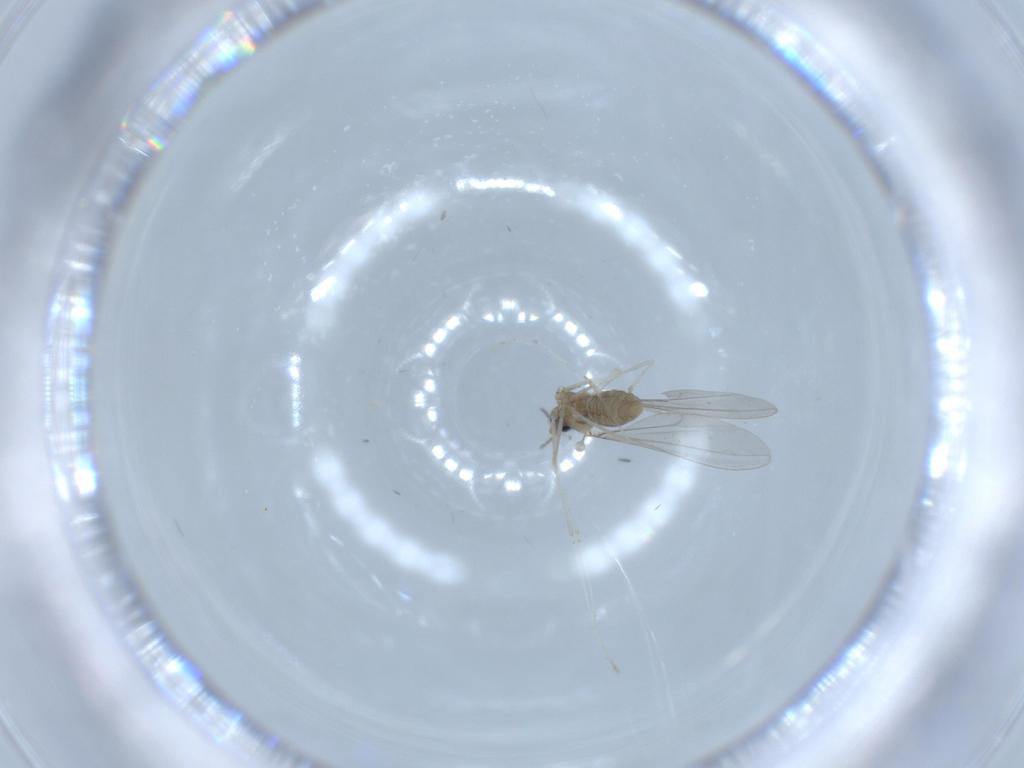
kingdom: Animalia
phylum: Arthropoda
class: Insecta
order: Diptera
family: Cecidomyiidae
